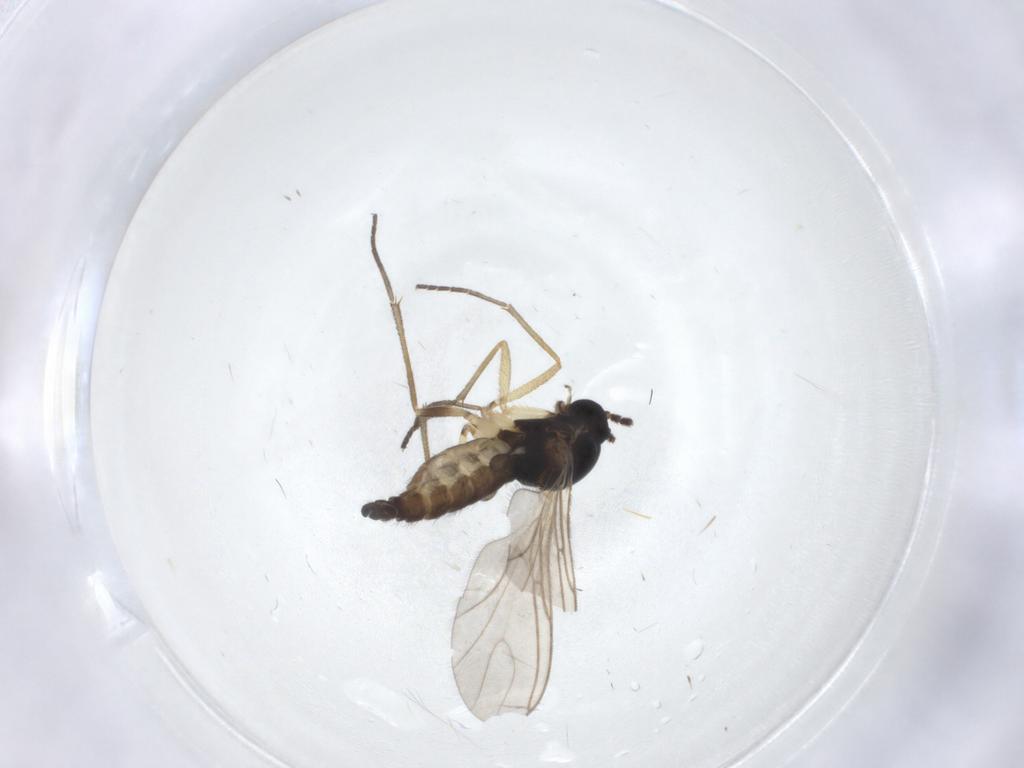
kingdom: Animalia
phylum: Arthropoda
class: Insecta
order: Diptera
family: Sciaridae
